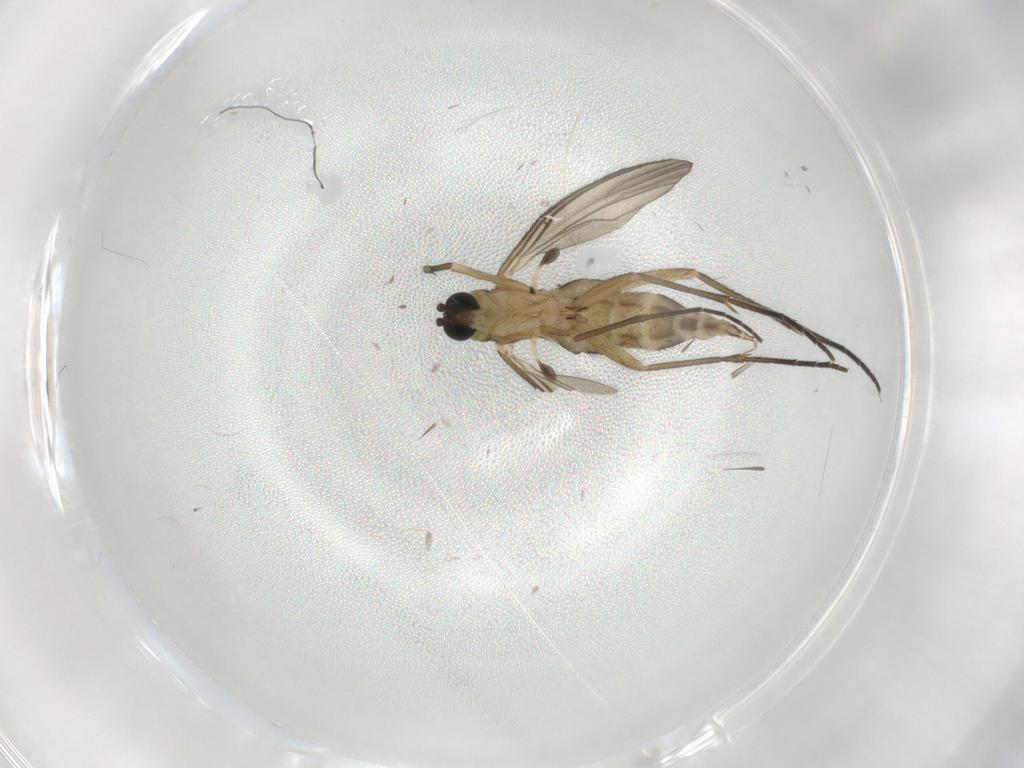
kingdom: Animalia
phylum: Arthropoda
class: Insecta
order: Diptera
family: Sciaridae
